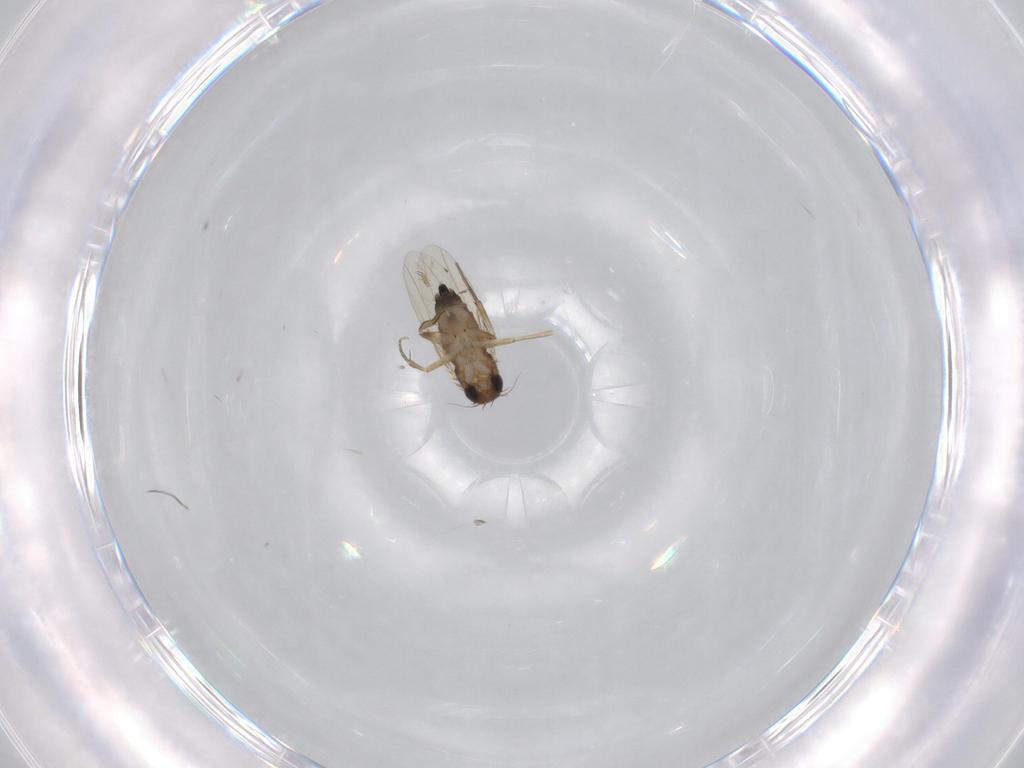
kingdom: Animalia
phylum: Arthropoda
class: Insecta
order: Diptera
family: Phoridae
